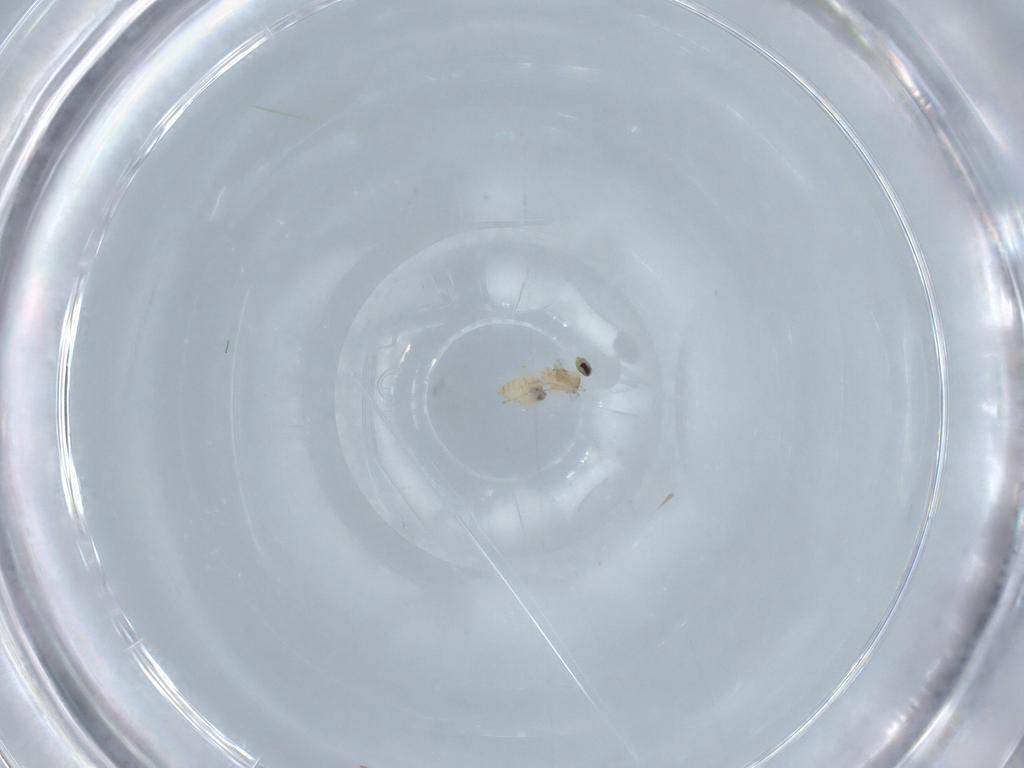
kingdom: Animalia
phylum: Arthropoda
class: Insecta
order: Diptera
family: Cecidomyiidae
